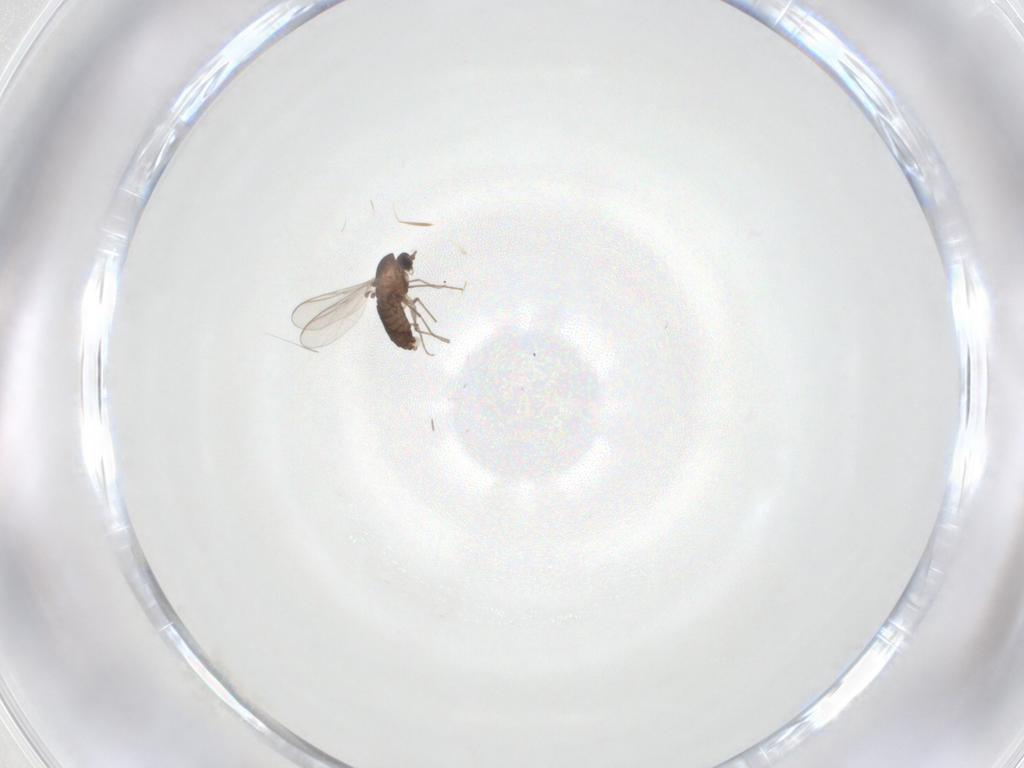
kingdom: Animalia
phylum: Arthropoda
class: Insecta
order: Diptera
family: Chironomidae
